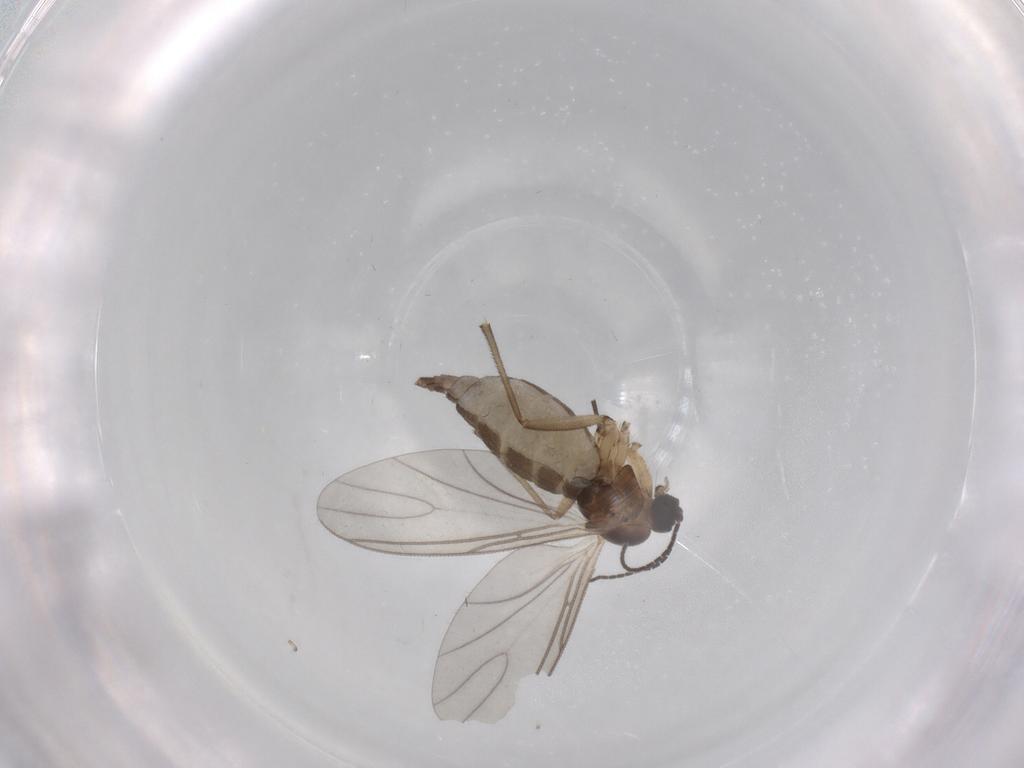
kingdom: Animalia
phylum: Arthropoda
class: Insecta
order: Diptera
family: Chironomidae
